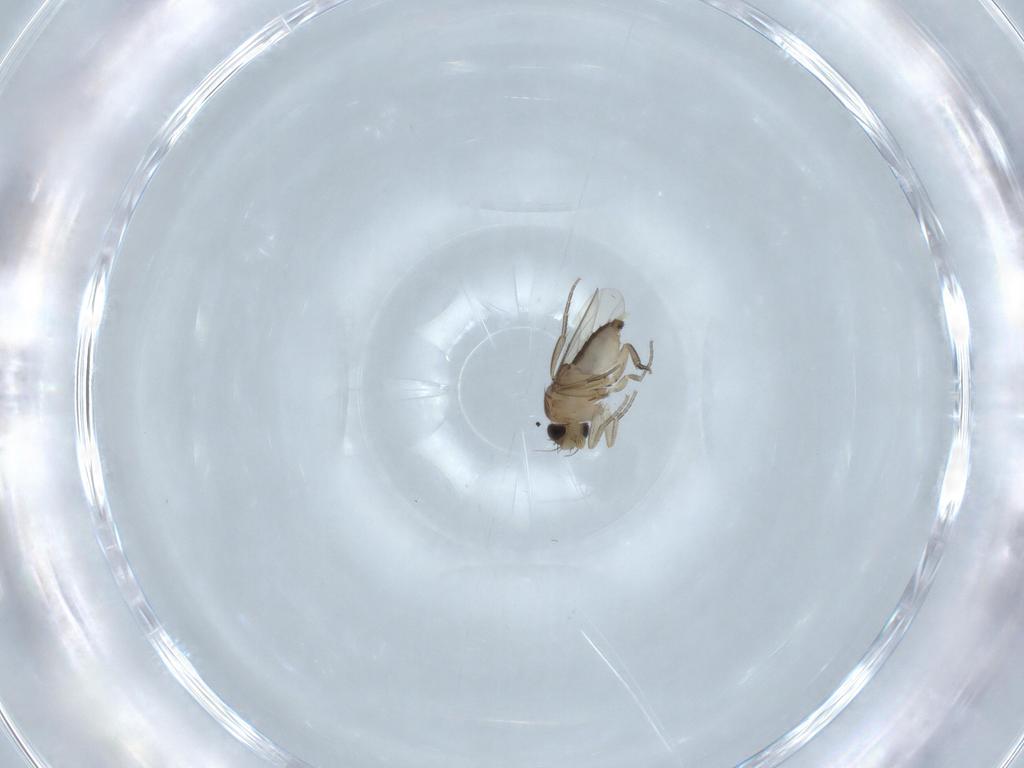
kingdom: Animalia
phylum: Arthropoda
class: Insecta
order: Diptera
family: Phoridae
